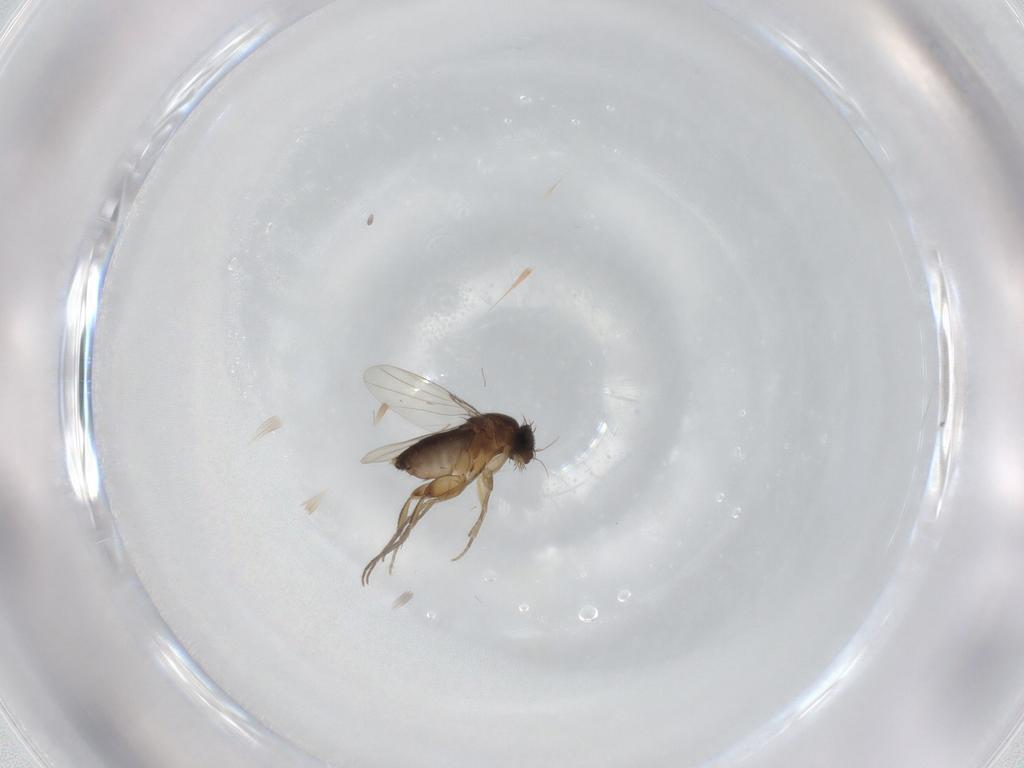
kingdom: Animalia
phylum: Arthropoda
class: Insecta
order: Diptera
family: Phoridae
